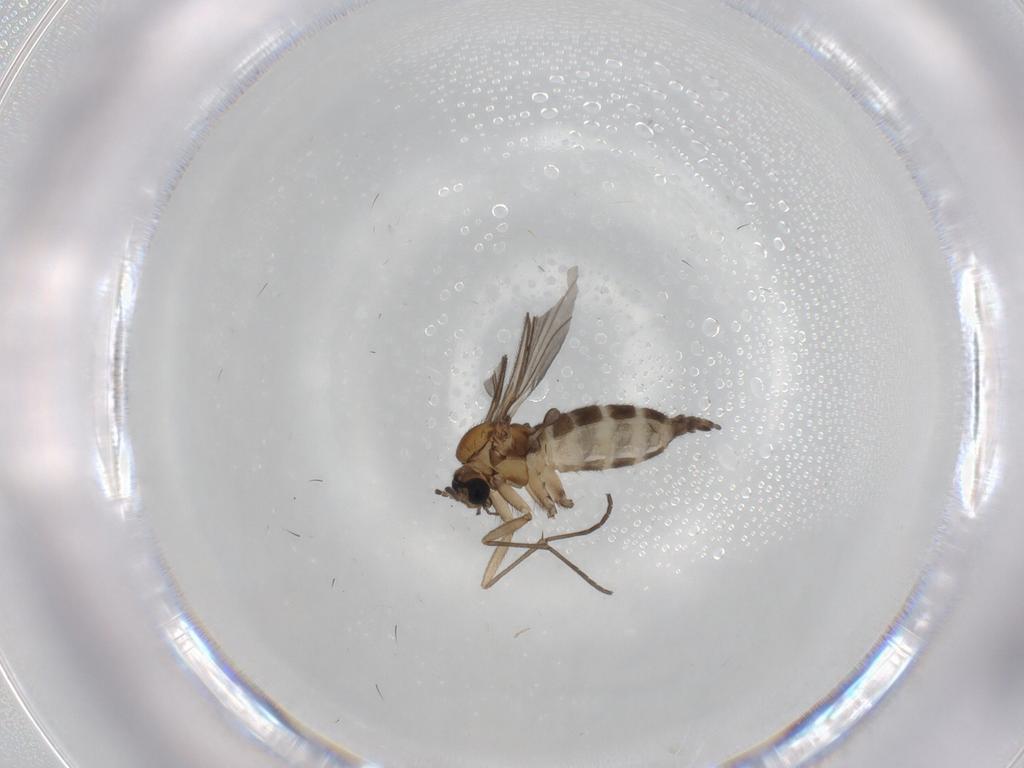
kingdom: Animalia
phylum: Arthropoda
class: Insecta
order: Diptera
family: Sciaridae
